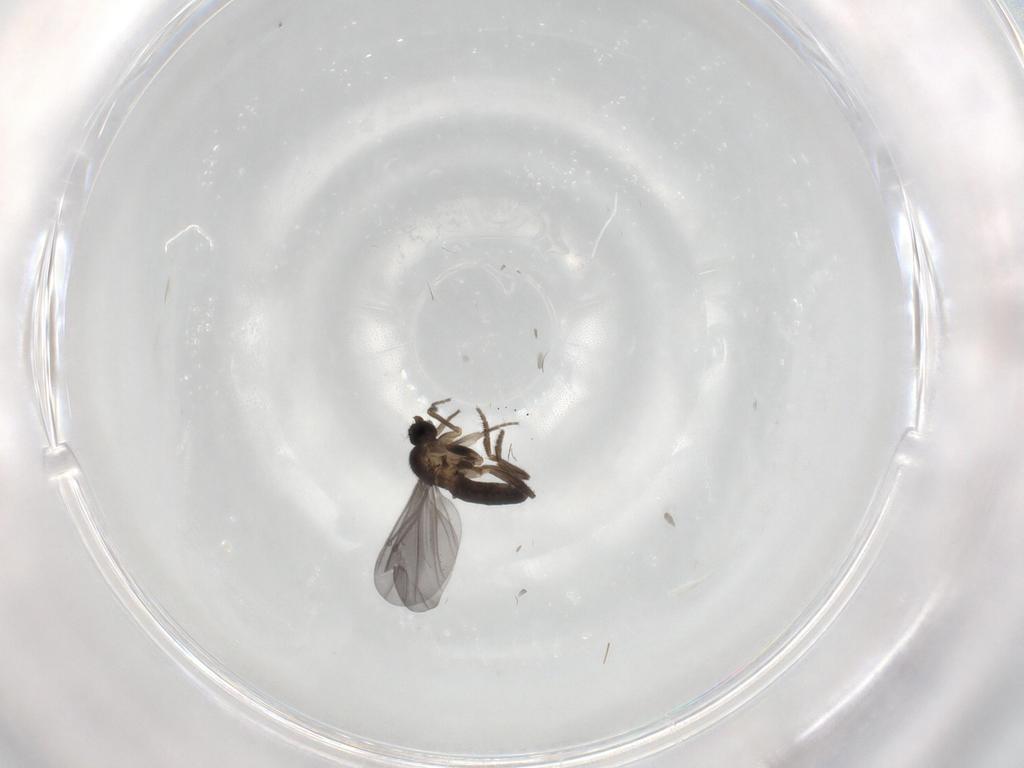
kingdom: Animalia
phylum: Arthropoda
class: Insecta
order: Diptera
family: Phoridae
